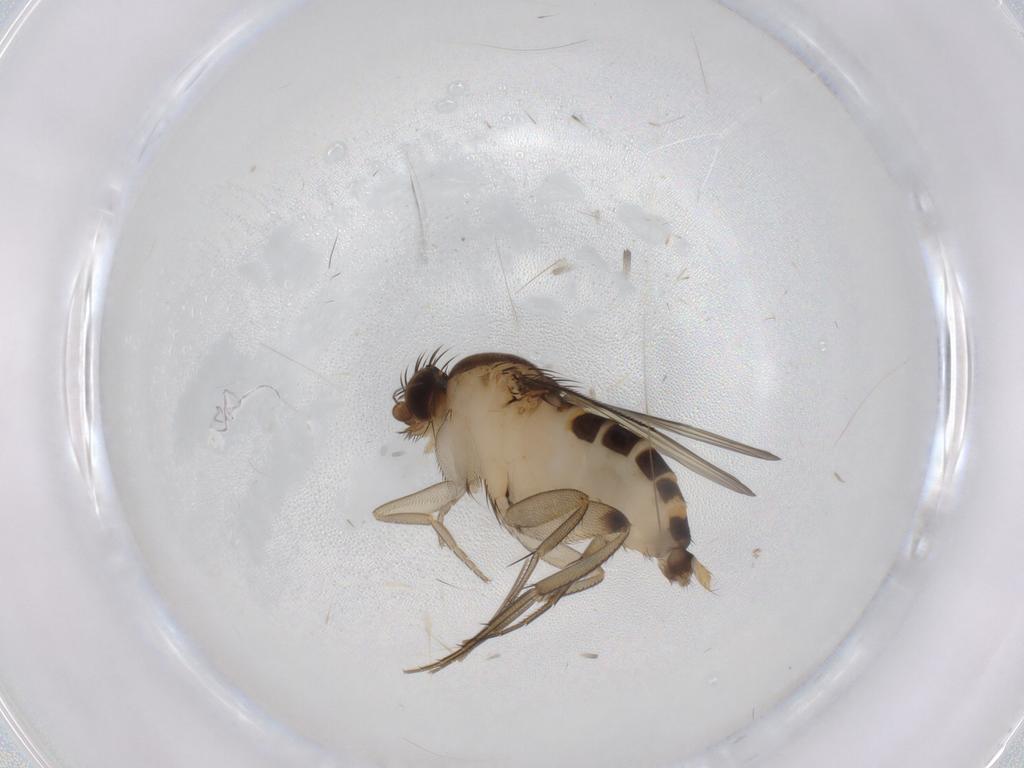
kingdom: Animalia
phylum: Arthropoda
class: Insecta
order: Diptera
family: Phoridae
